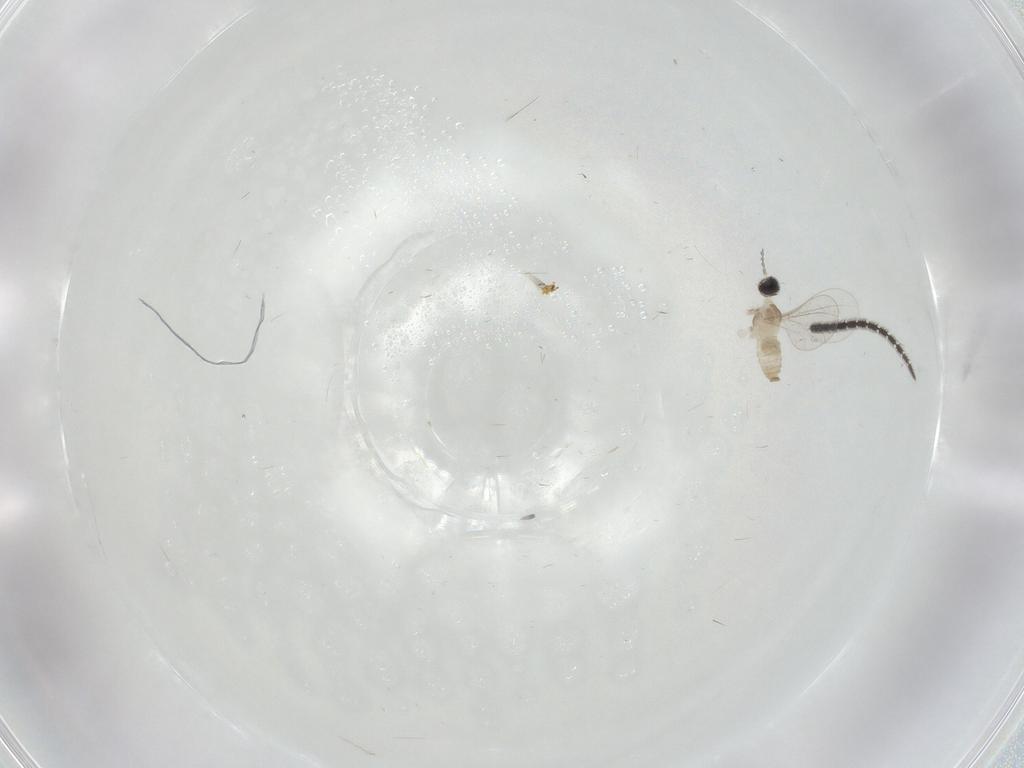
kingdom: Animalia
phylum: Arthropoda
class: Insecta
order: Diptera
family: Cecidomyiidae
